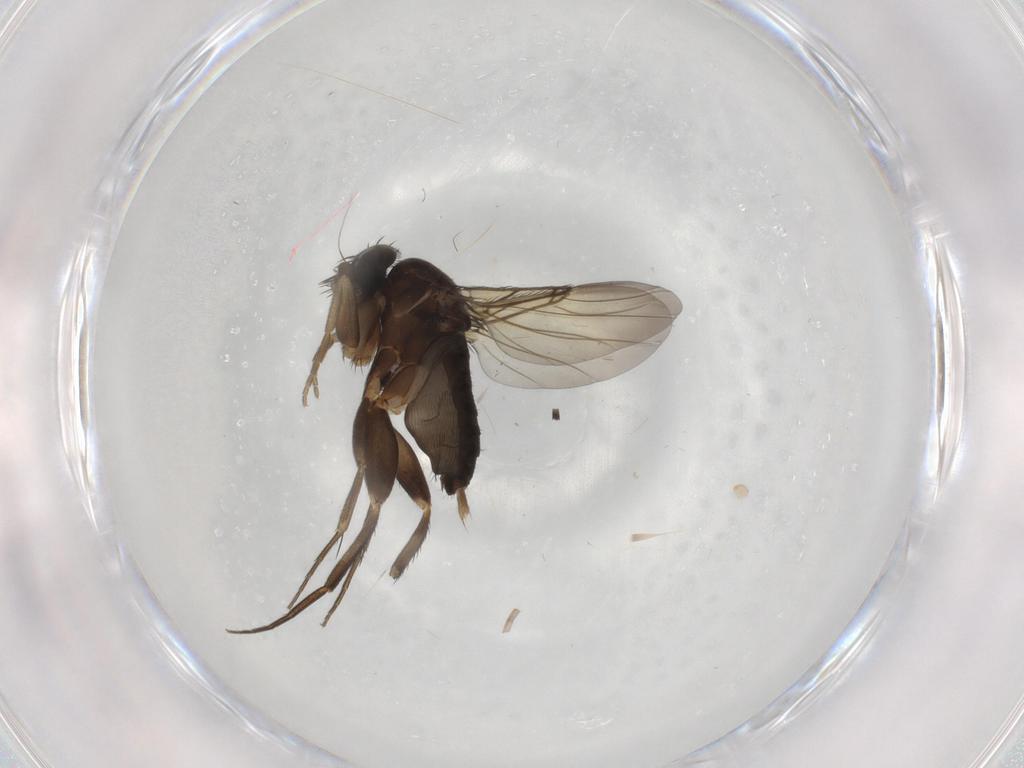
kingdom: Animalia
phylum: Arthropoda
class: Insecta
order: Diptera
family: Phoridae
